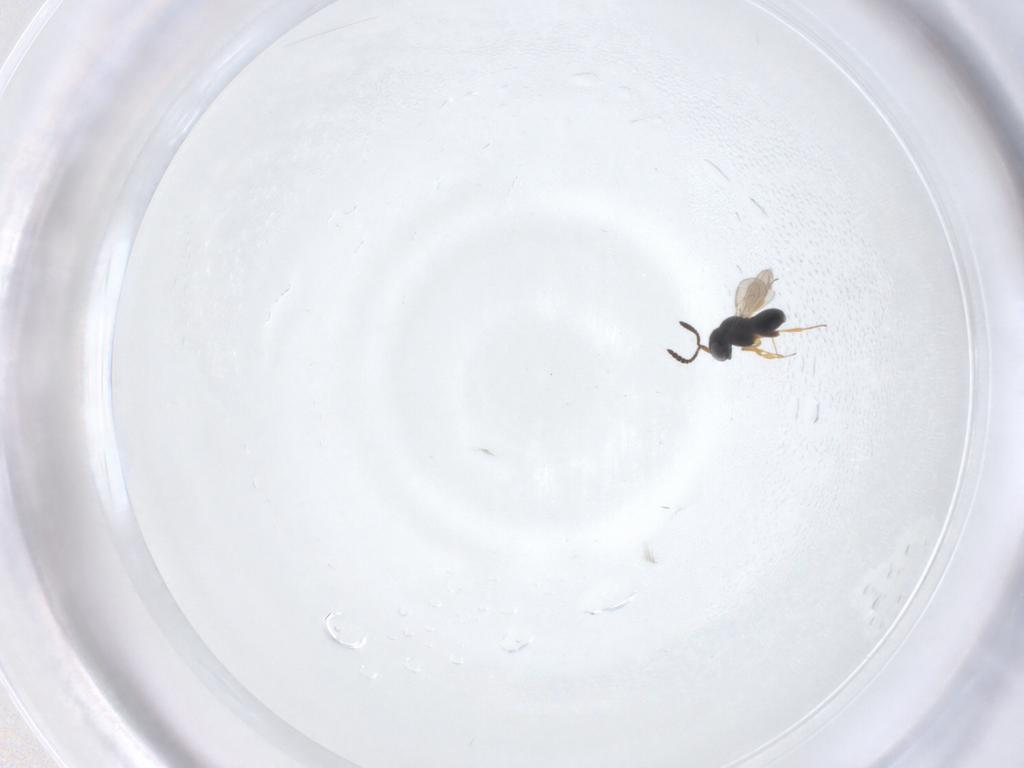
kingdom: Animalia
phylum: Arthropoda
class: Insecta
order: Hymenoptera
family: Scelionidae
